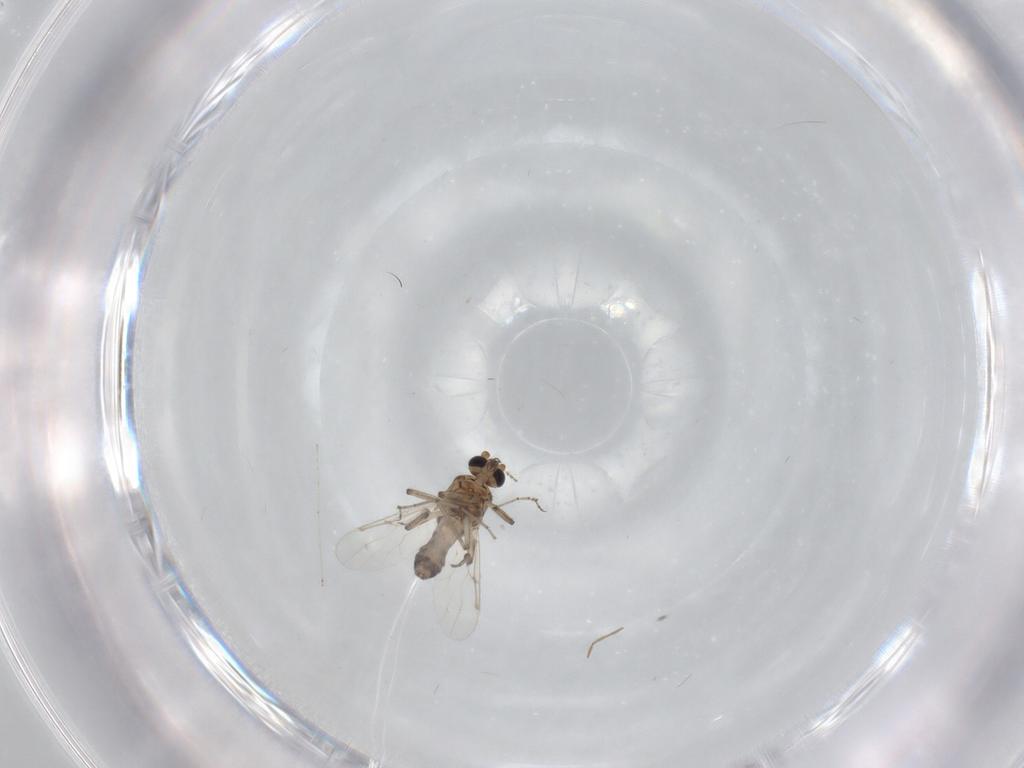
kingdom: Animalia
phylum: Arthropoda
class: Insecta
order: Diptera
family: Ceratopogonidae
